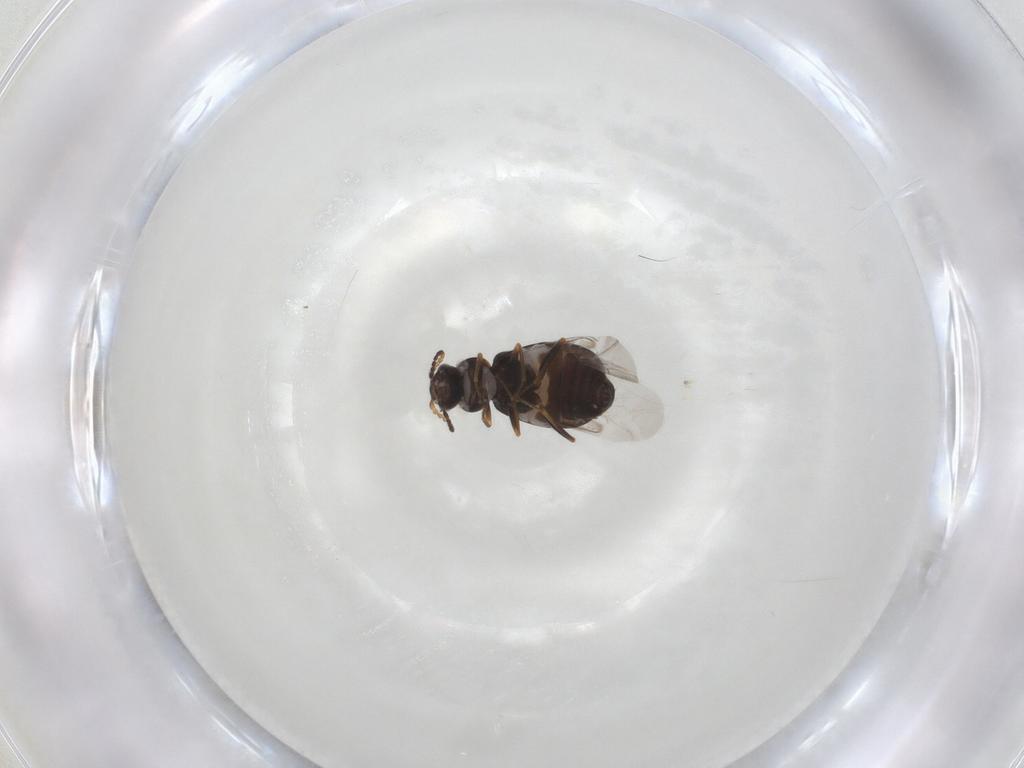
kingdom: Animalia
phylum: Arthropoda
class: Insecta
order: Coleoptera
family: Melyridae
